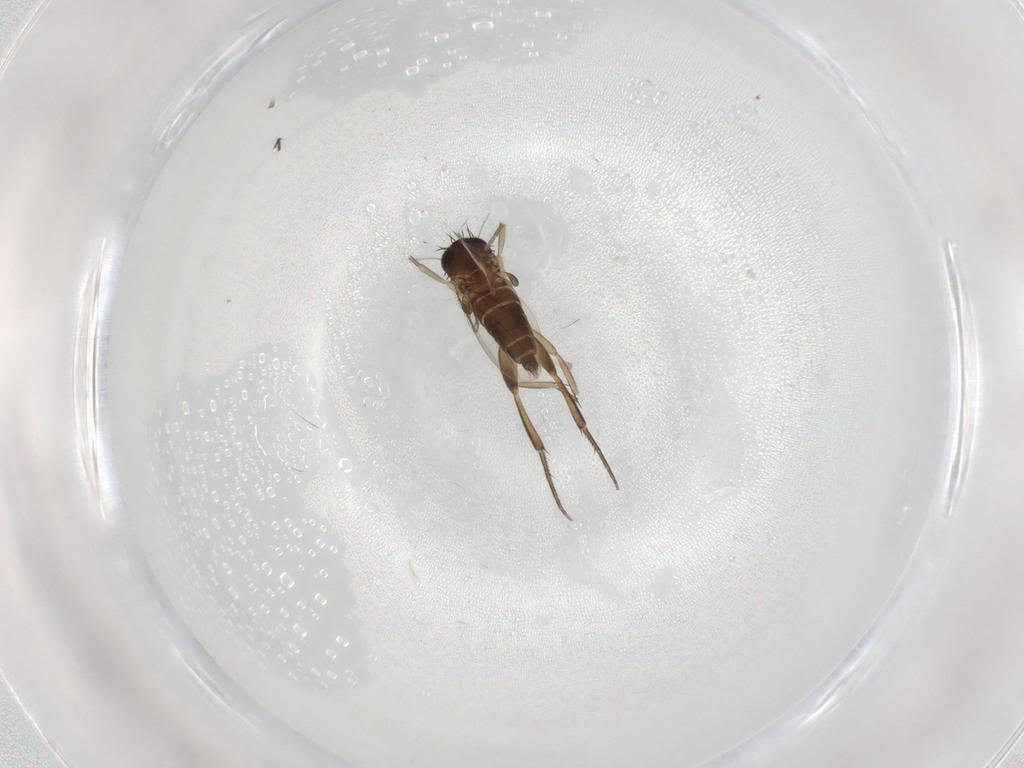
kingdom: Animalia
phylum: Arthropoda
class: Insecta
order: Diptera
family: Phoridae
